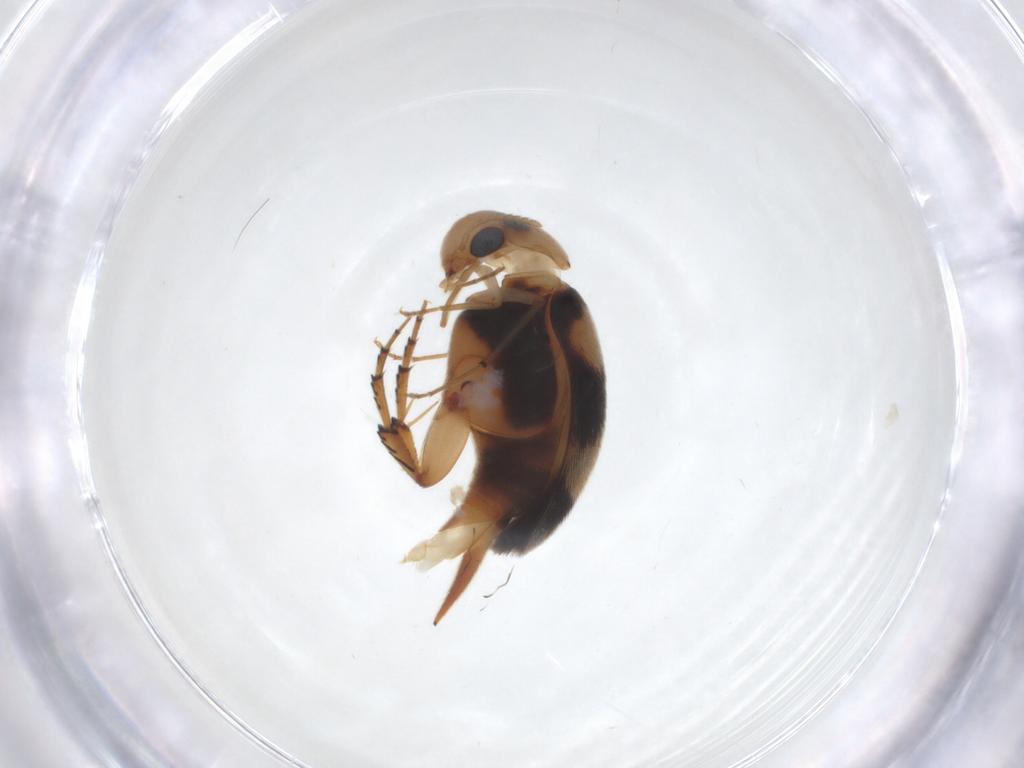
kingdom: Animalia
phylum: Arthropoda
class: Insecta
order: Coleoptera
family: Mordellidae
